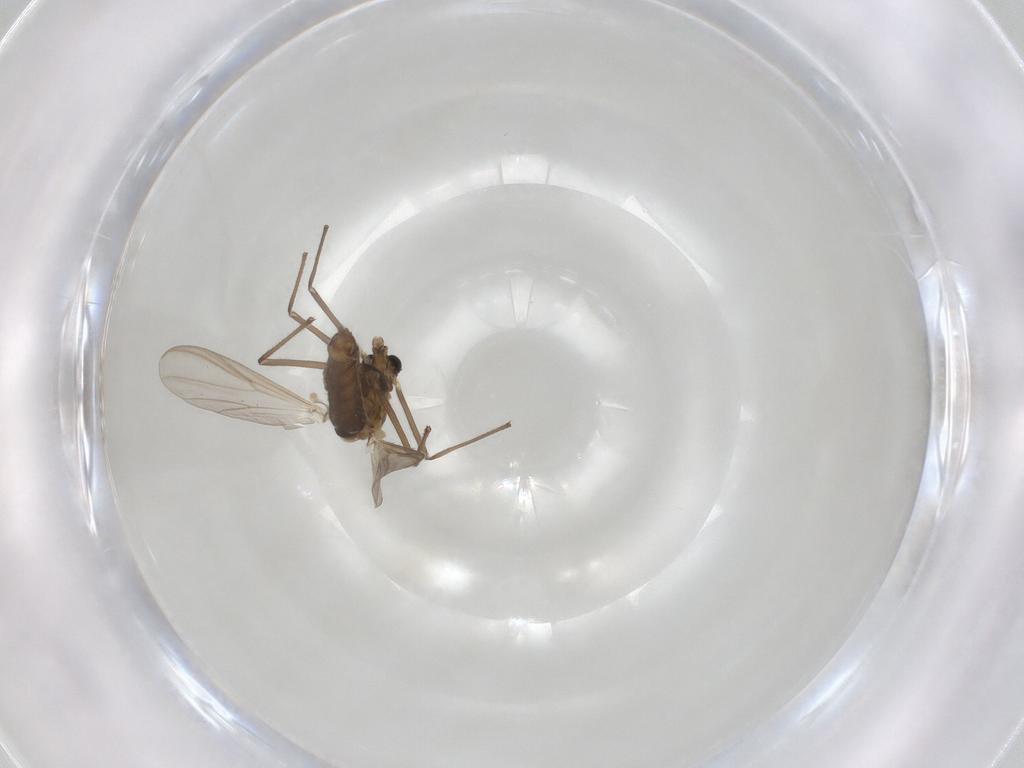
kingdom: Animalia
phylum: Arthropoda
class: Insecta
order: Diptera
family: Chironomidae
